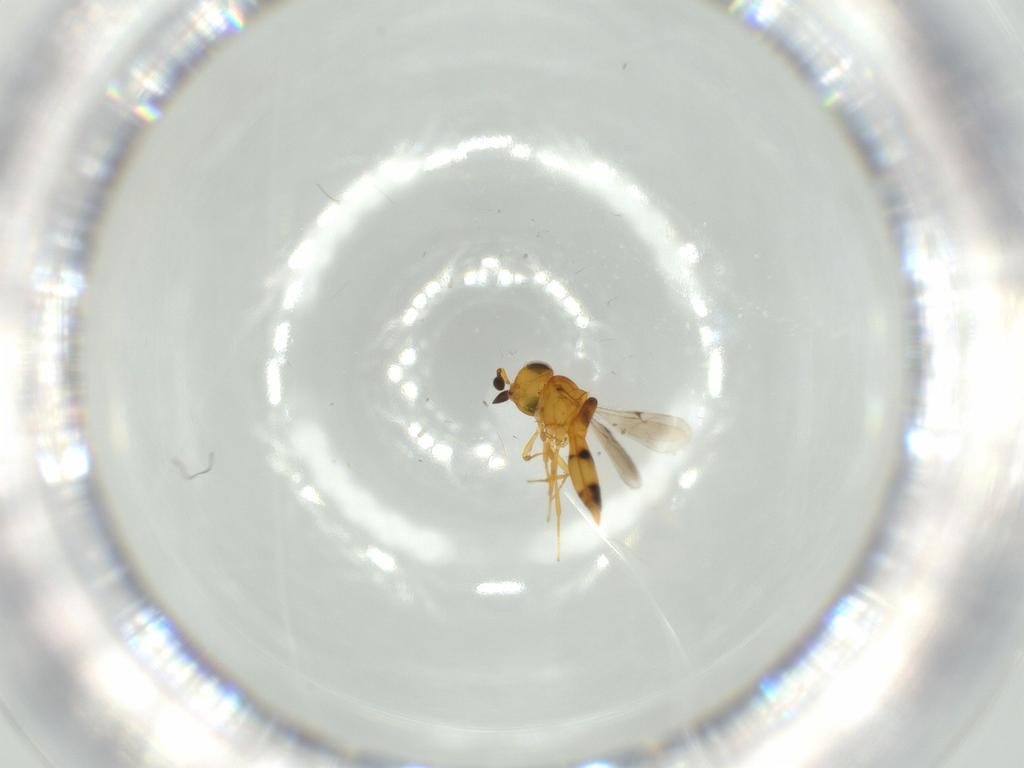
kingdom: Animalia
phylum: Arthropoda
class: Insecta
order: Hymenoptera
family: Scelionidae
